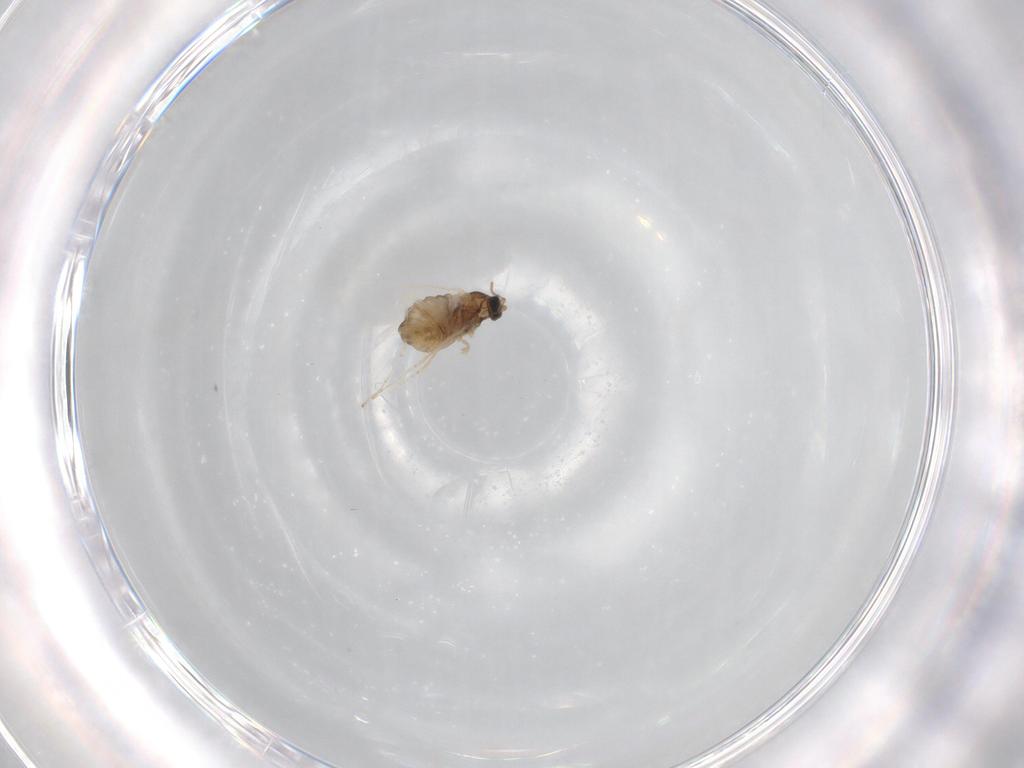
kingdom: Animalia
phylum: Arthropoda
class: Insecta
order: Diptera
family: Cecidomyiidae
